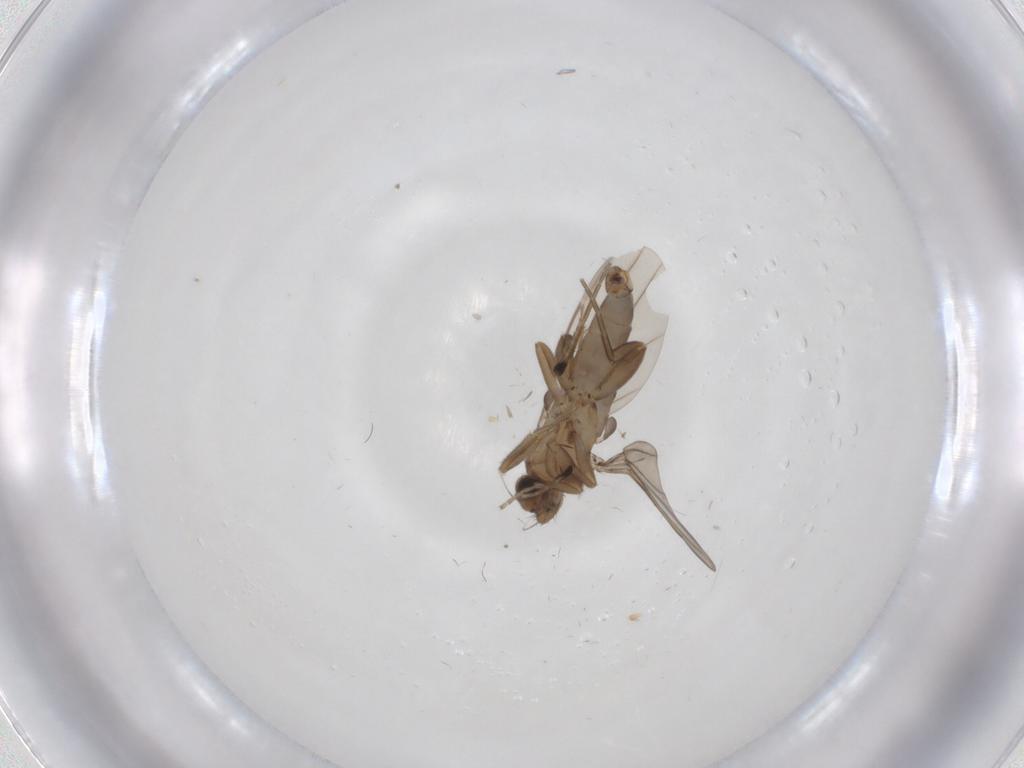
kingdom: Animalia
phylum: Arthropoda
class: Insecta
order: Diptera
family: Phoridae
